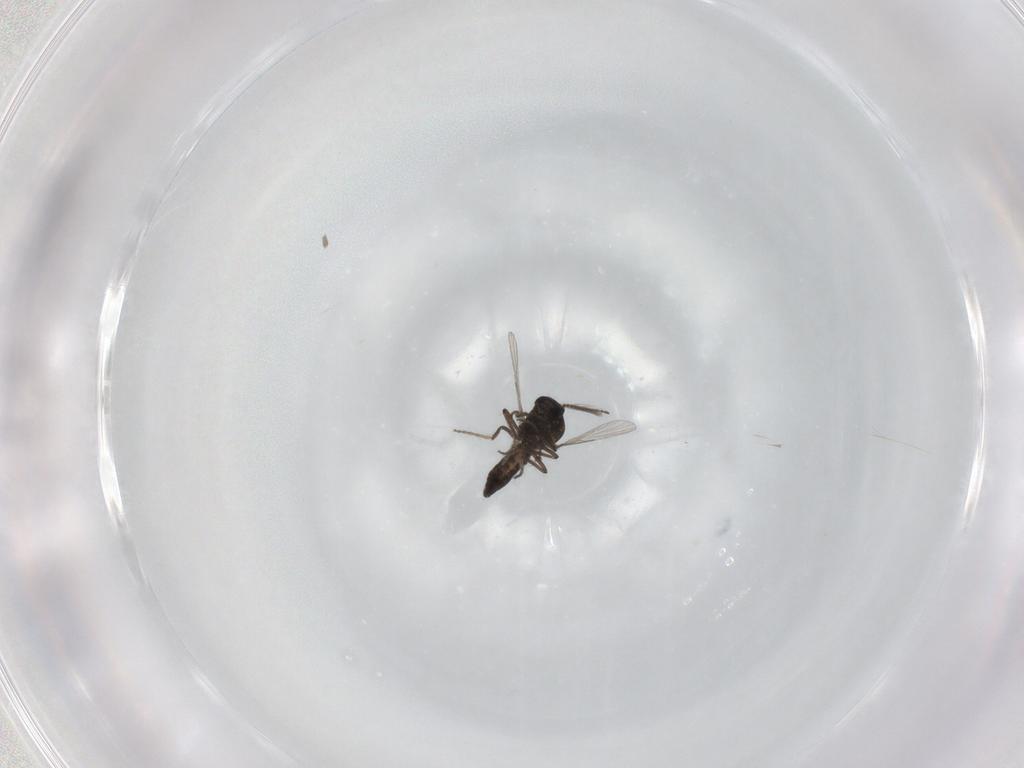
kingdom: Animalia
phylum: Arthropoda
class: Insecta
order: Diptera
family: Ceratopogonidae
